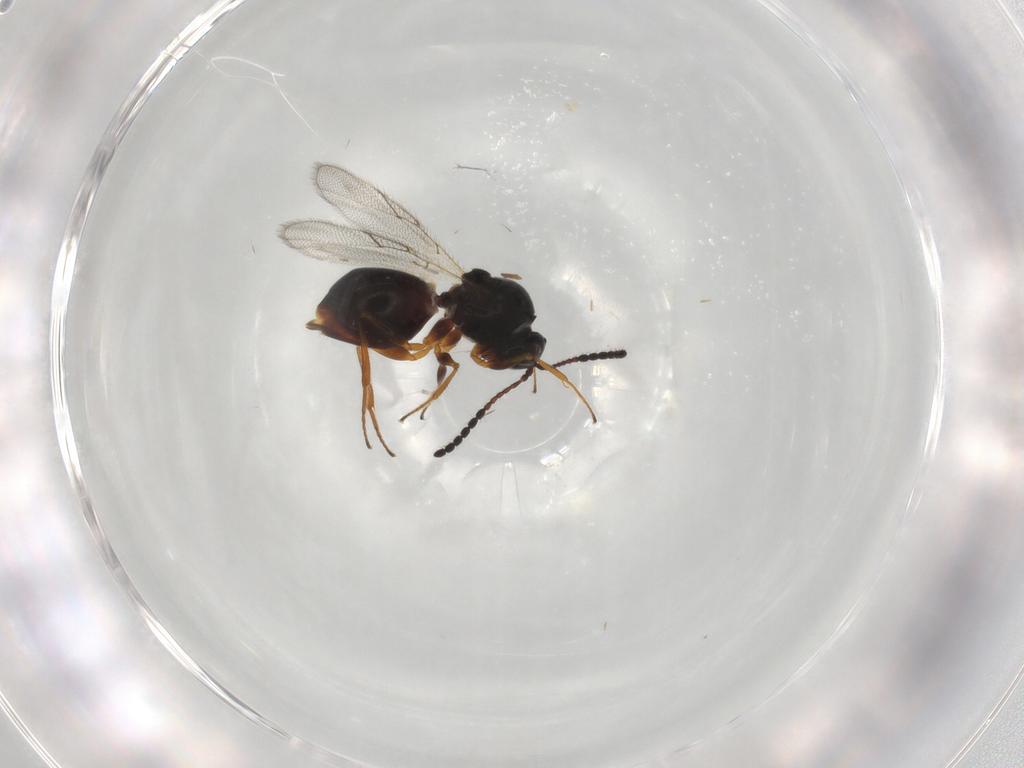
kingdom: Animalia
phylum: Arthropoda
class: Insecta
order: Hymenoptera
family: Figitidae
